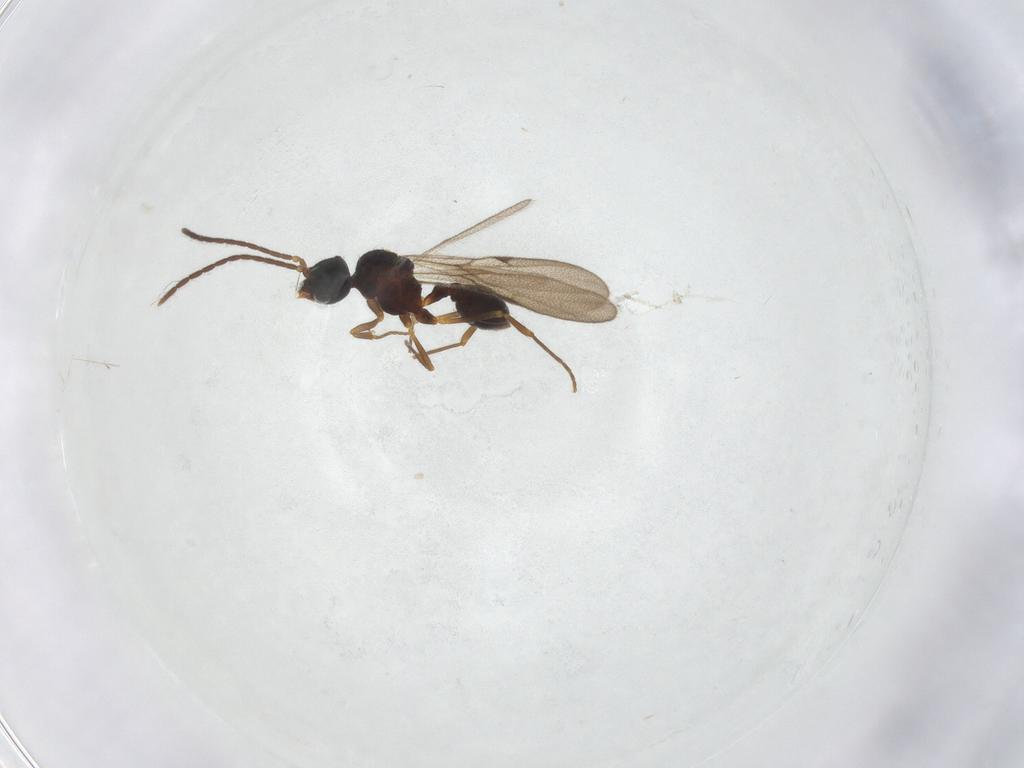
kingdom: Animalia
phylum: Arthropoda
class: Insecta
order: Hymenoptera
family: Formicidae
